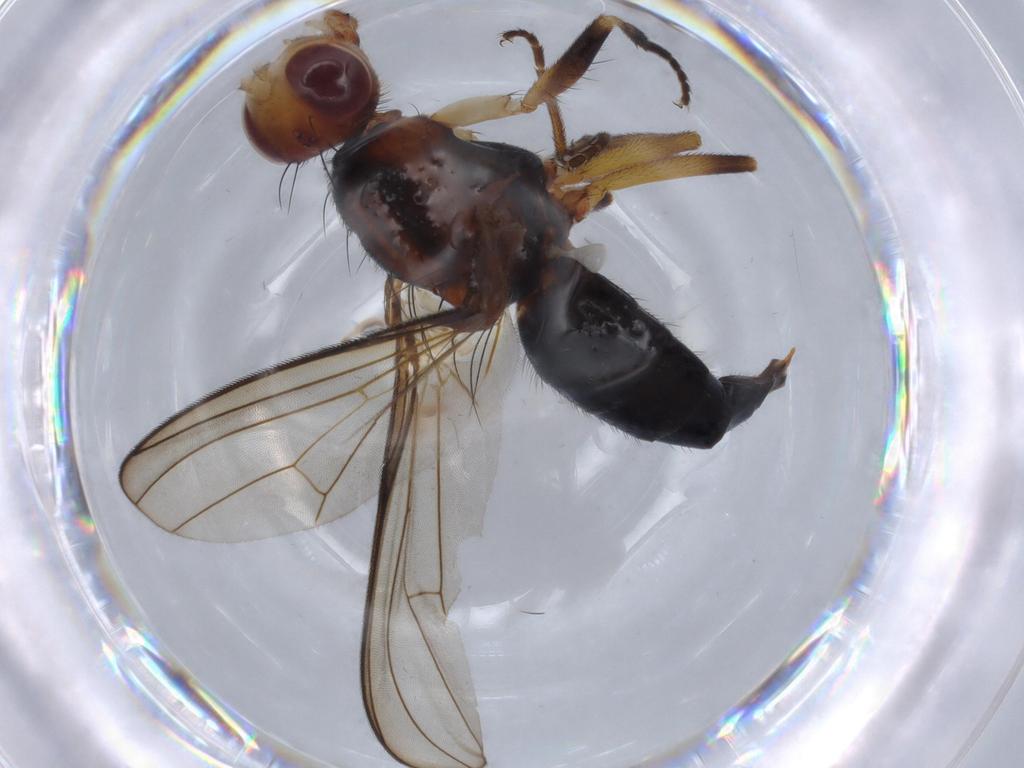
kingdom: Animalia
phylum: Arthropoda
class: Insecta
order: Diptera
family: Piophilidae
